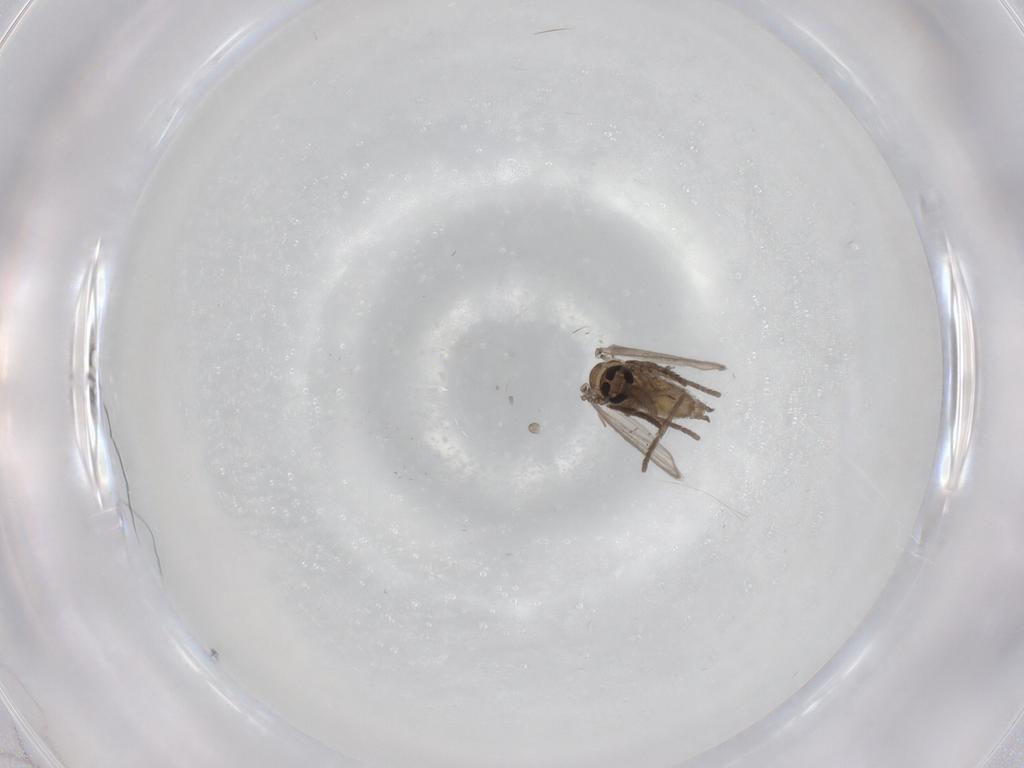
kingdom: Animalia
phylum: Arthropoda
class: Insecta
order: Diptera
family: Psychodidae
